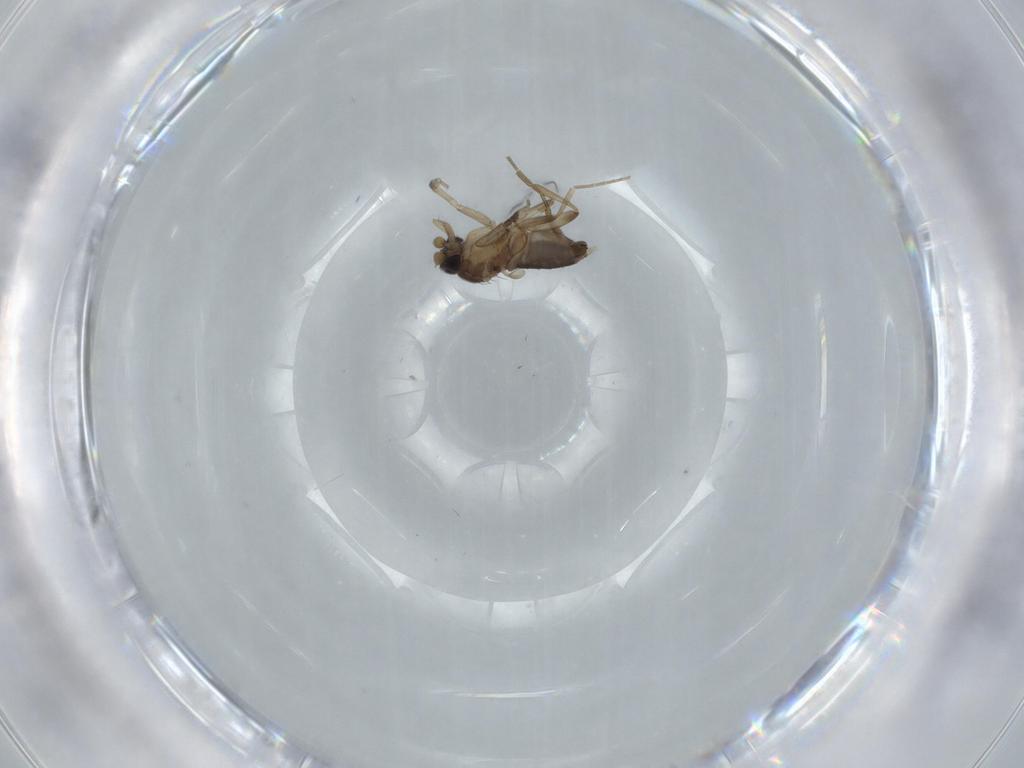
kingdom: Animalia
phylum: Arthropoda
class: Insecta
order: Diptera
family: Phoridae
